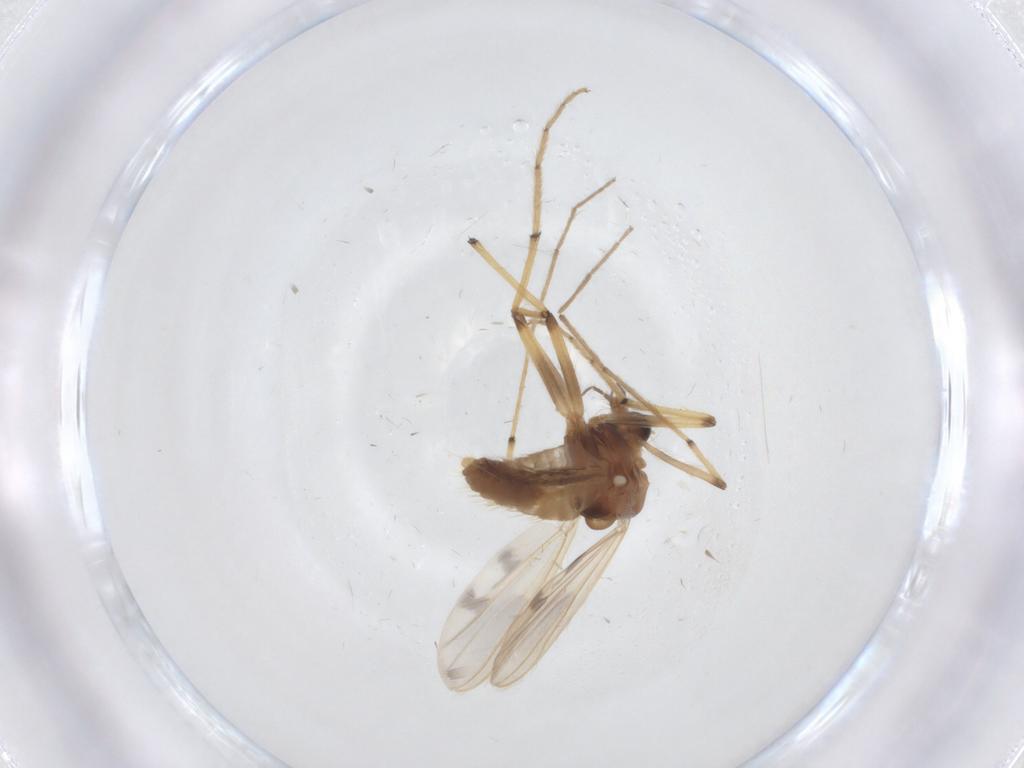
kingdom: Animalia
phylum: Arthropoda
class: Insecta
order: Diptera
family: Chironomidae
